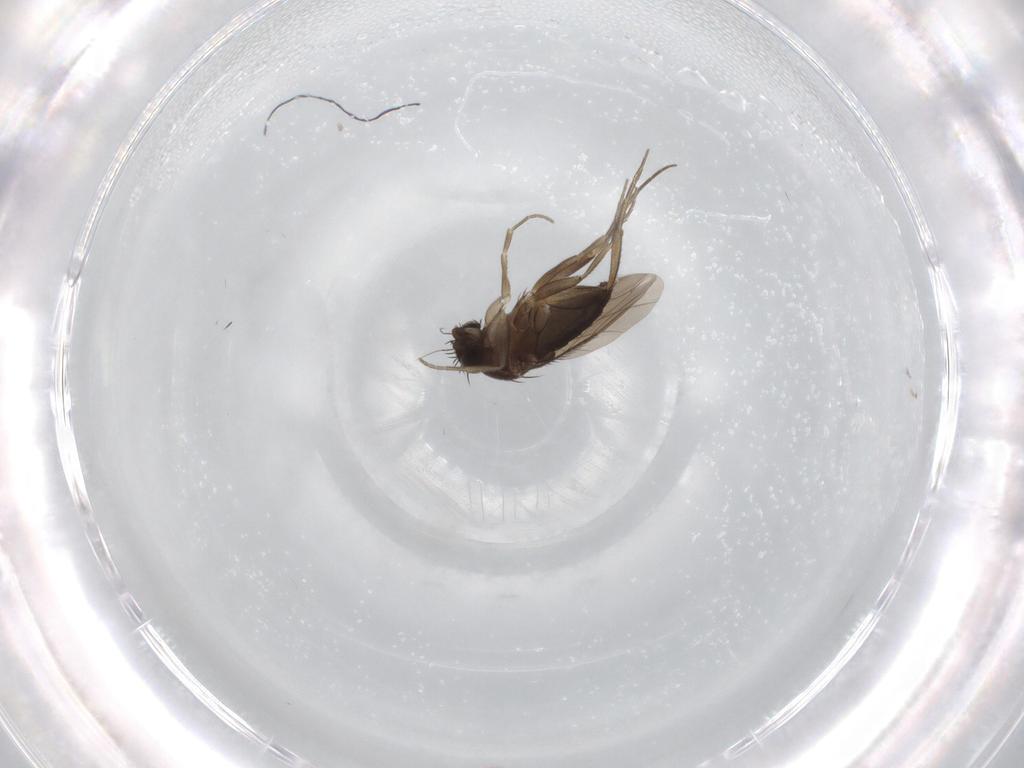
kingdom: Animalia
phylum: Arthropoda
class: Insecta
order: Diptera
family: Phoridae
